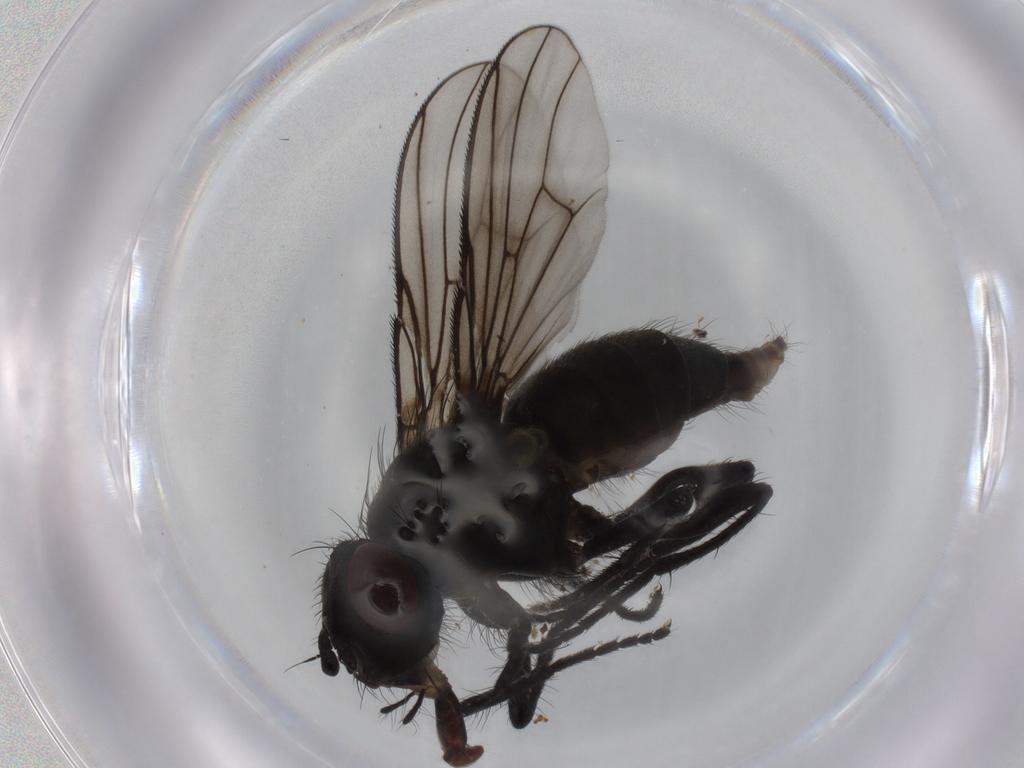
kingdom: Animalia
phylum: Arthropoda
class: Insecta
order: Diptera
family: Muscidae
